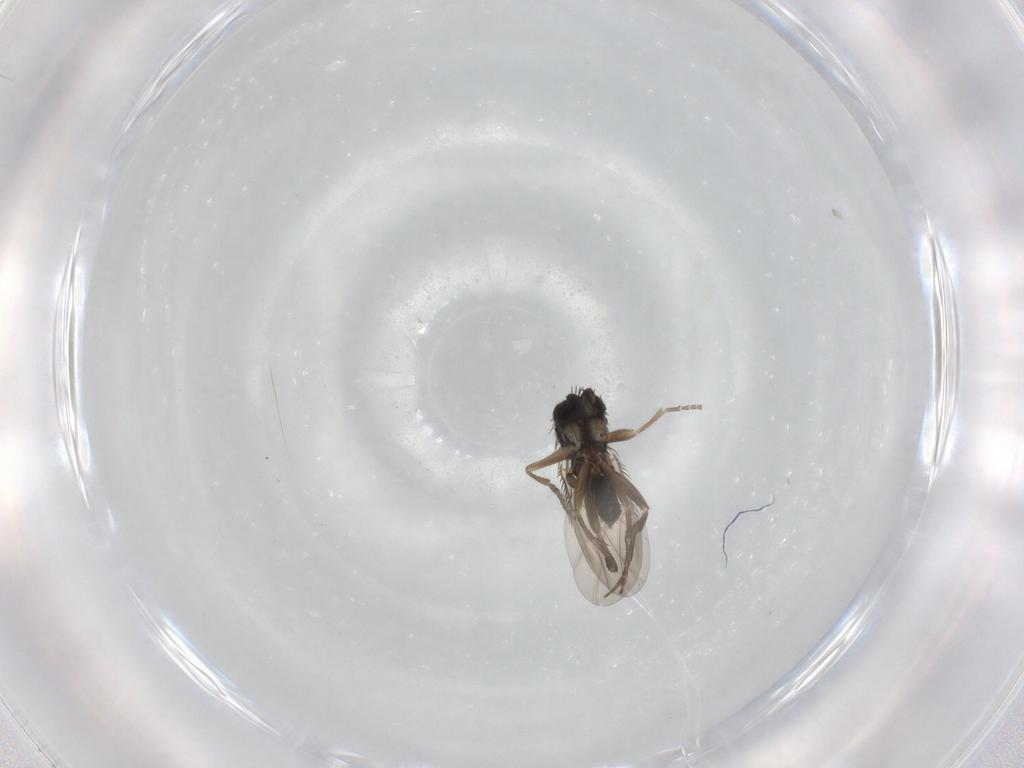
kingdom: Animalia
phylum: Arthropoda
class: Insecta
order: Diptera
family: Phoridae
